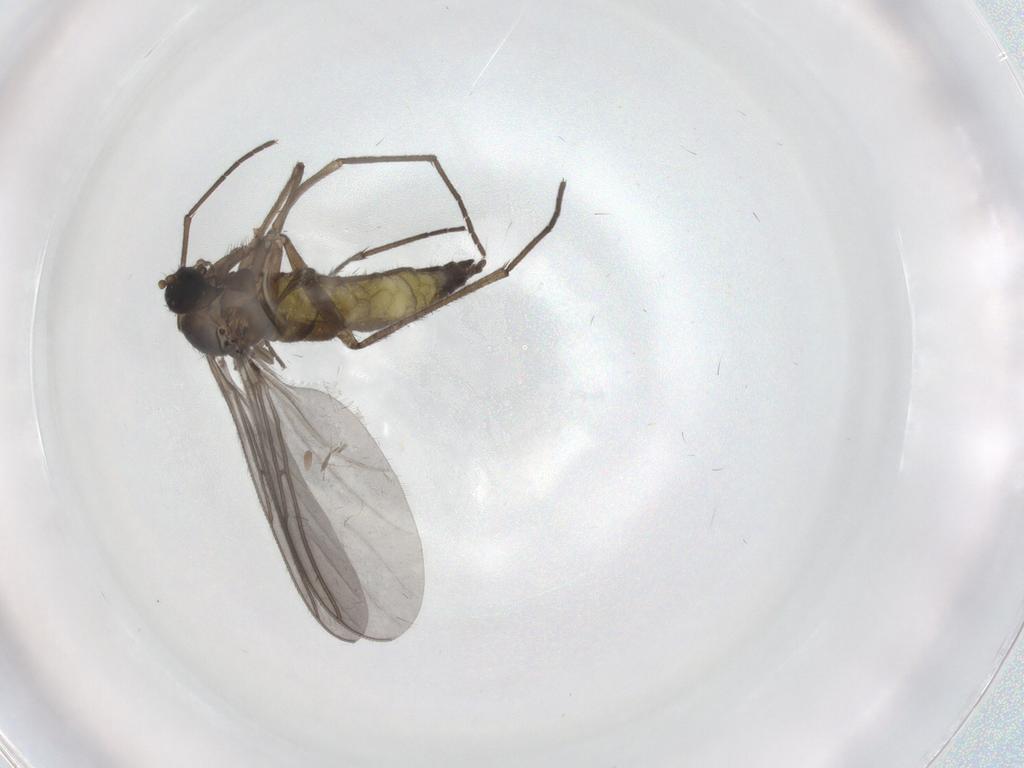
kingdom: Animalia
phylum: Arthropoda
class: Insecta
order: Diptera
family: Sciaridae
